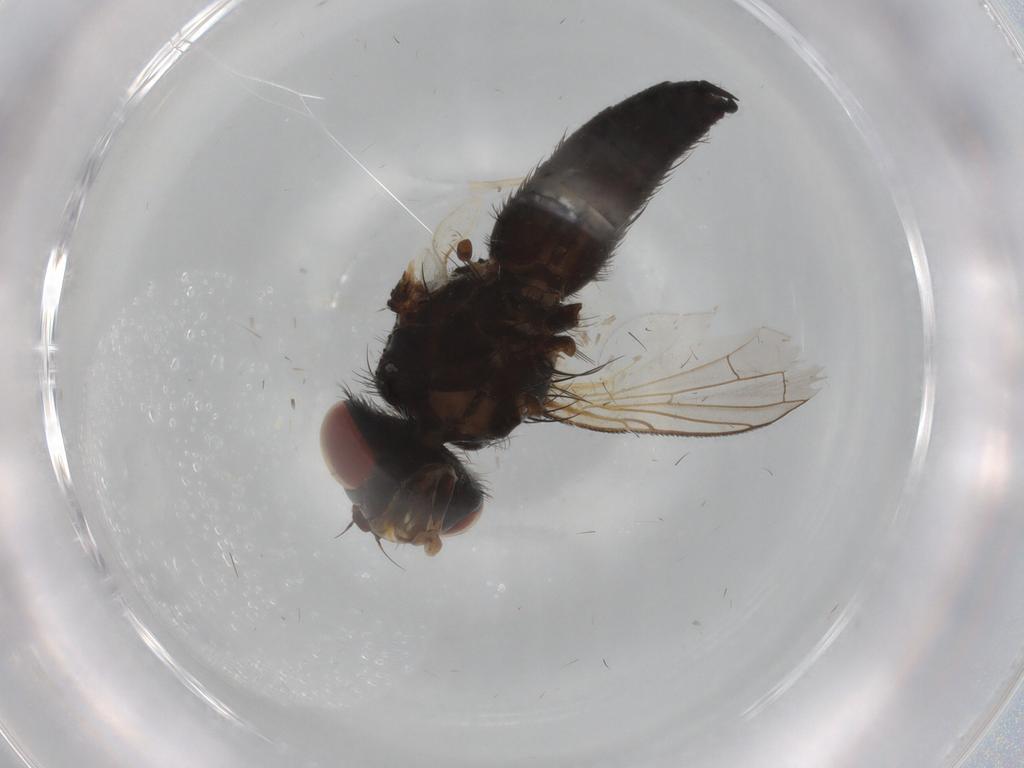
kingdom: Animalia
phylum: Arthropoda
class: Insecta
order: Diptera
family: Tachinidae
